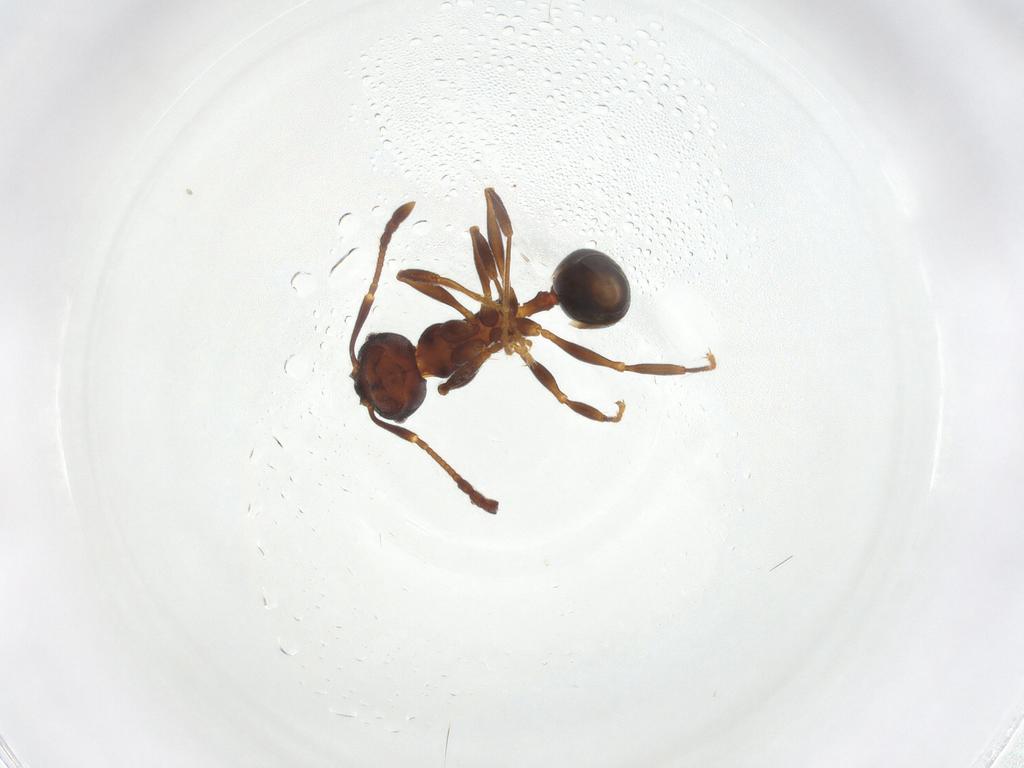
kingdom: Animalia
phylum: Arthropoda
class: Insecta
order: Hymenoptera
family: Formicidae
